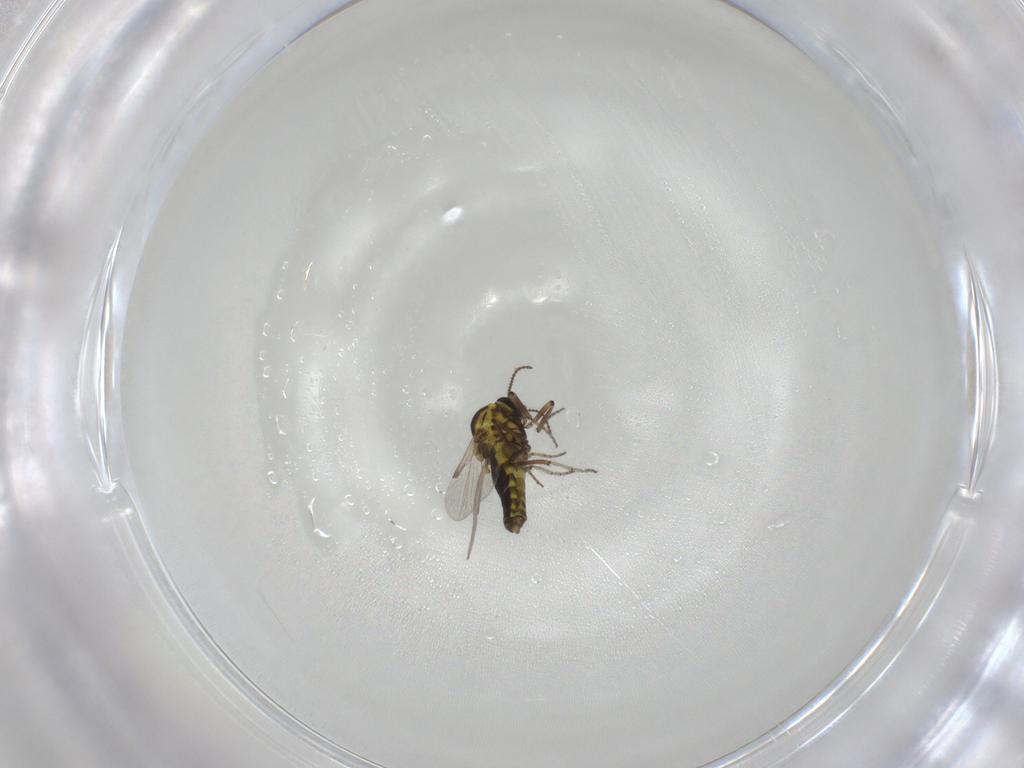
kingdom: Animalia
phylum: Arthropoda
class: Insecta
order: Diptera
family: Ceratopogonidae
